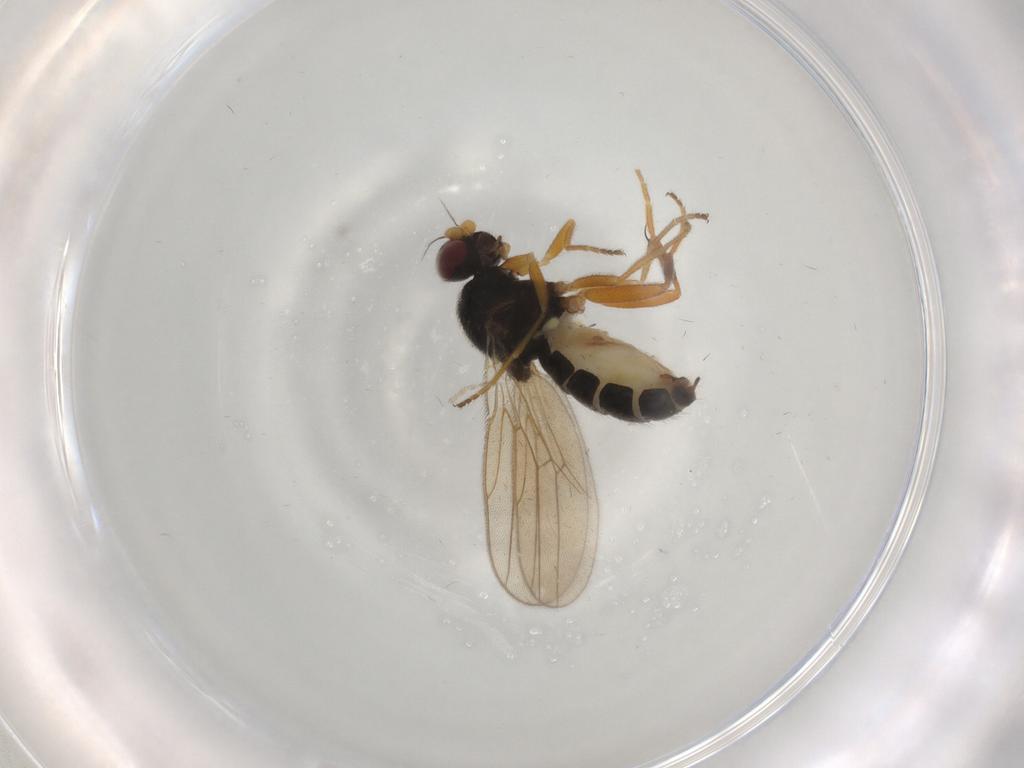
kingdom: Animalia
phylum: Arthropoda
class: Insecta
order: Diptera
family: Chloropidae
